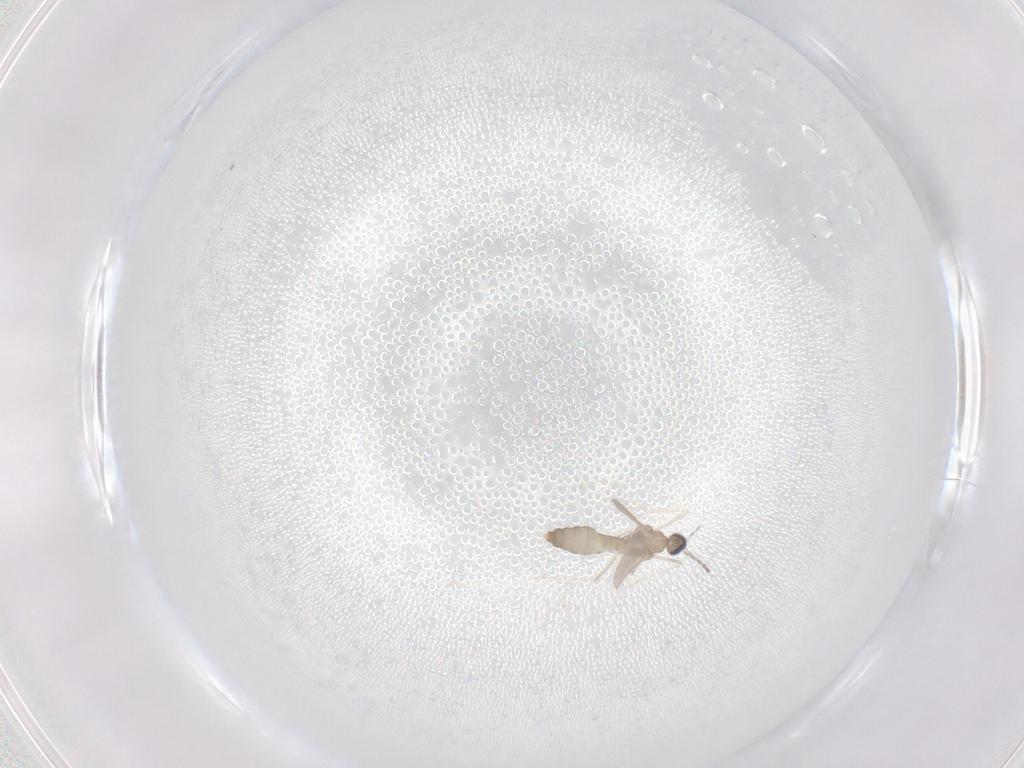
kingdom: Animalia
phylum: Arthropoda
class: Insecta
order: Diptera
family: Cecidomyiidae
